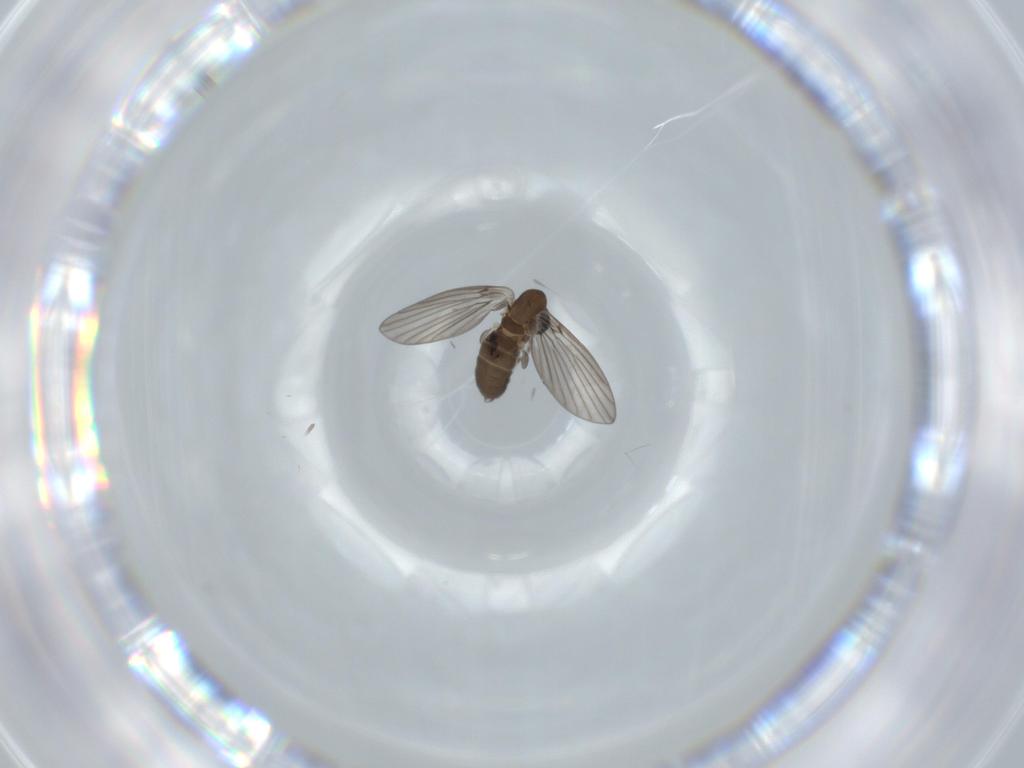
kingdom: Animalia
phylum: Arthropoda
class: Insecta
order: Diptera
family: Psychodidae
